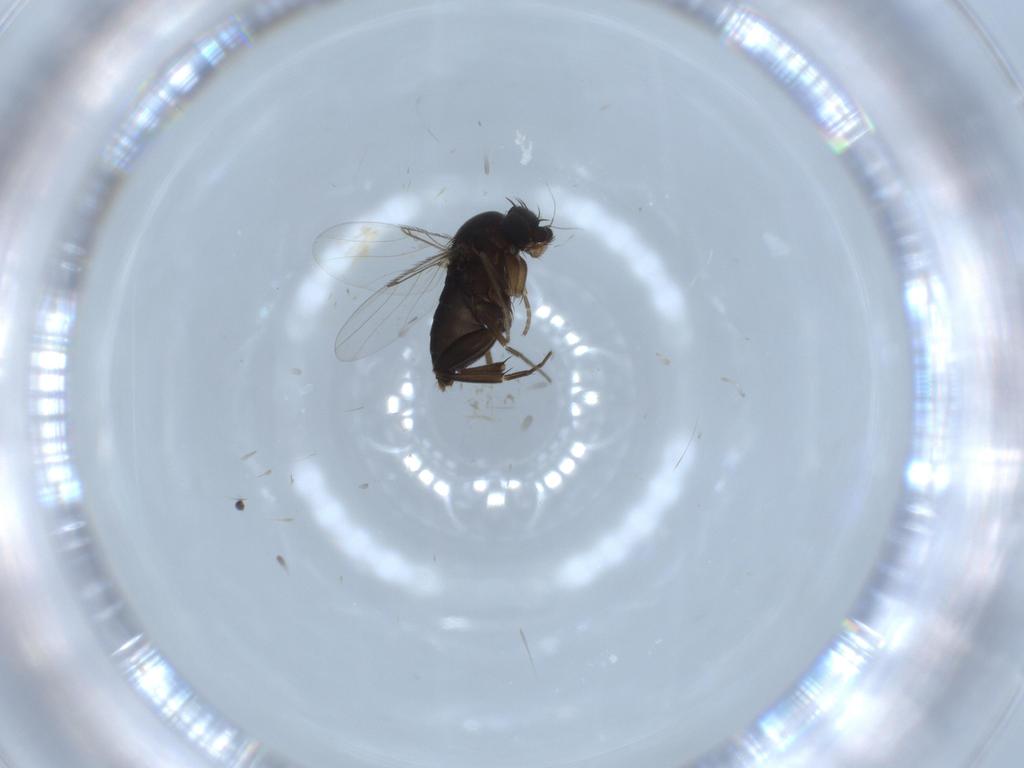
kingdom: Animalia
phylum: Arthropoda
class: Insecta
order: Diptera
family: Phoridae
